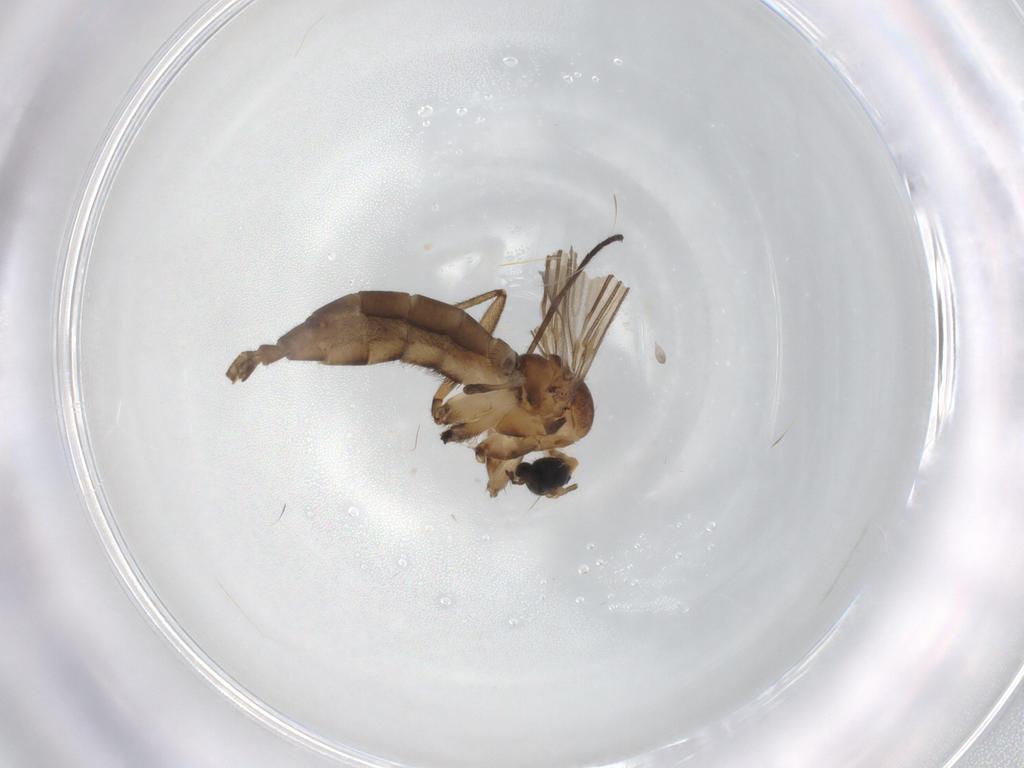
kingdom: Animalia
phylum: Arthropoda
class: Insecta
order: Diptera
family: Sciaridae
